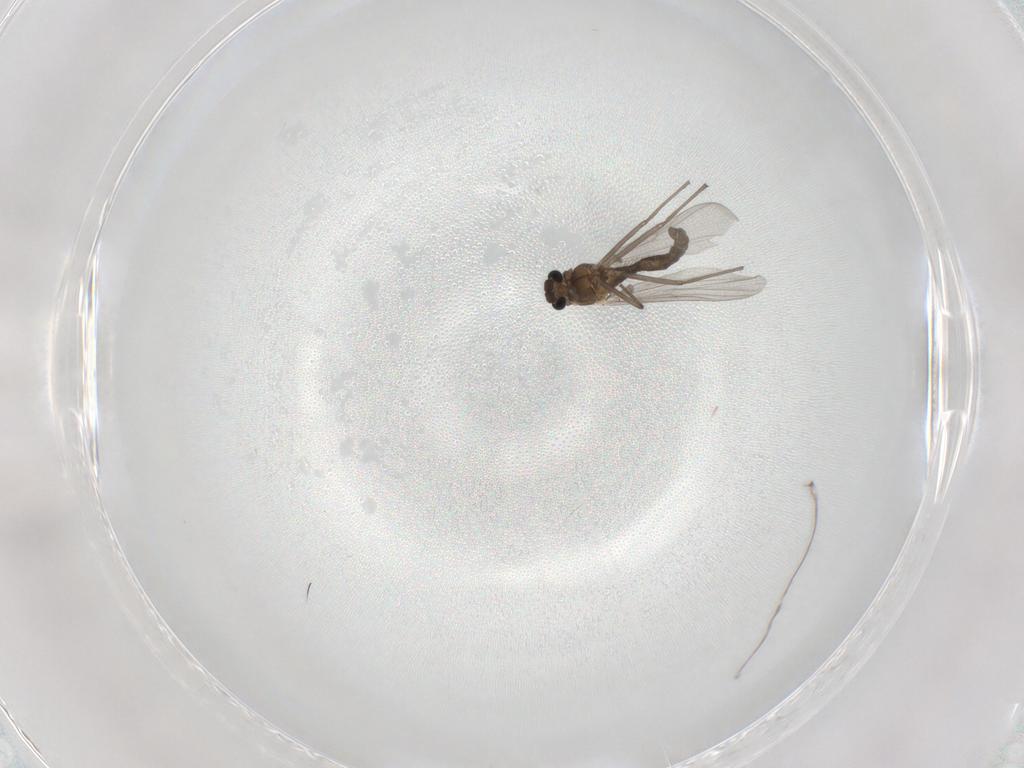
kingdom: Animalia
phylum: Arthropoda
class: Insecta
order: Diptera
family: Chironomidae
